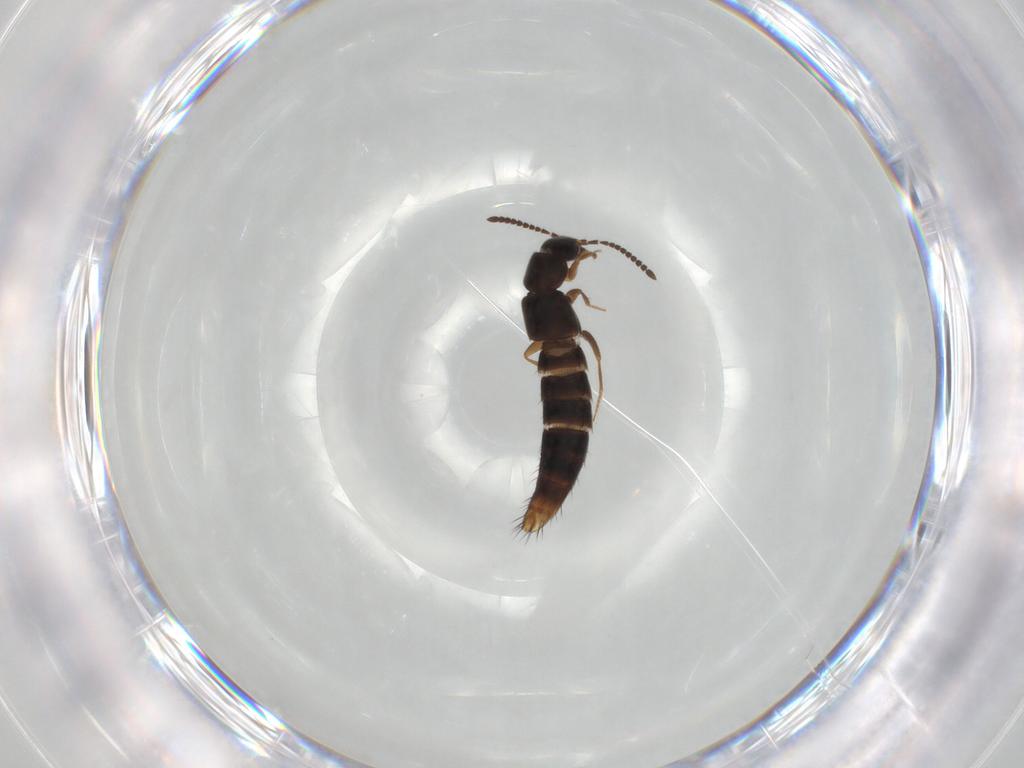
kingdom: Animalia
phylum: Arthropoda
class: Insecta
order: Coleoptera
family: Staphylinidae
